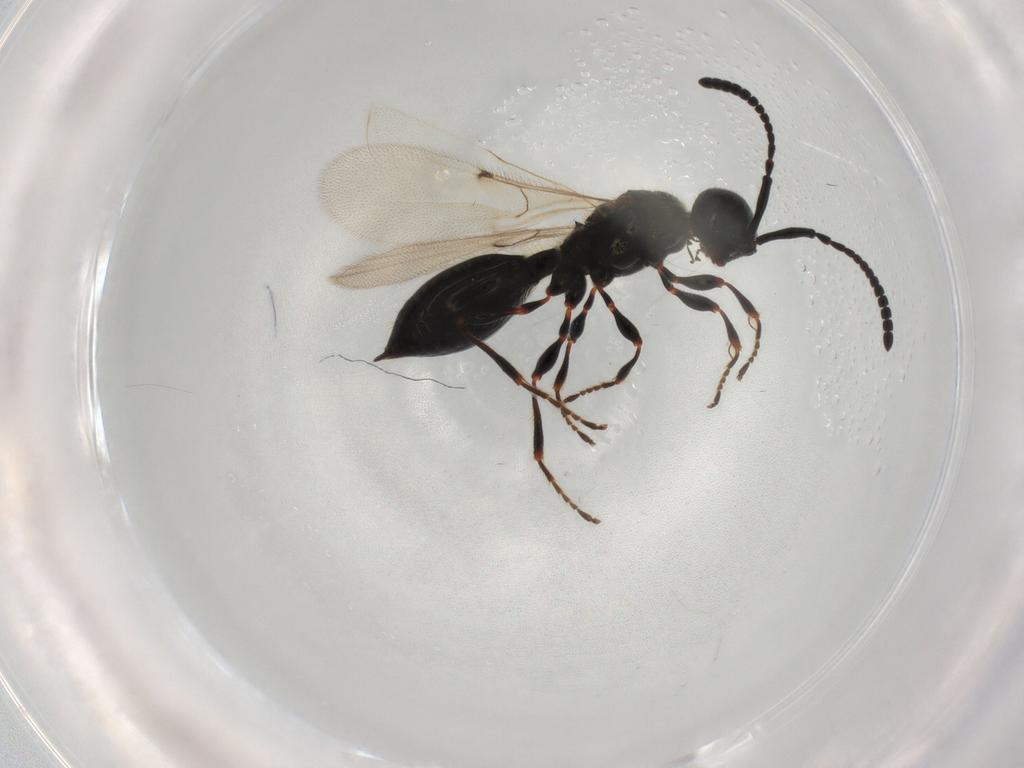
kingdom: Animalia
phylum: Arthropoda
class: Insecta
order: Hymenoptera
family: Diapriidae
